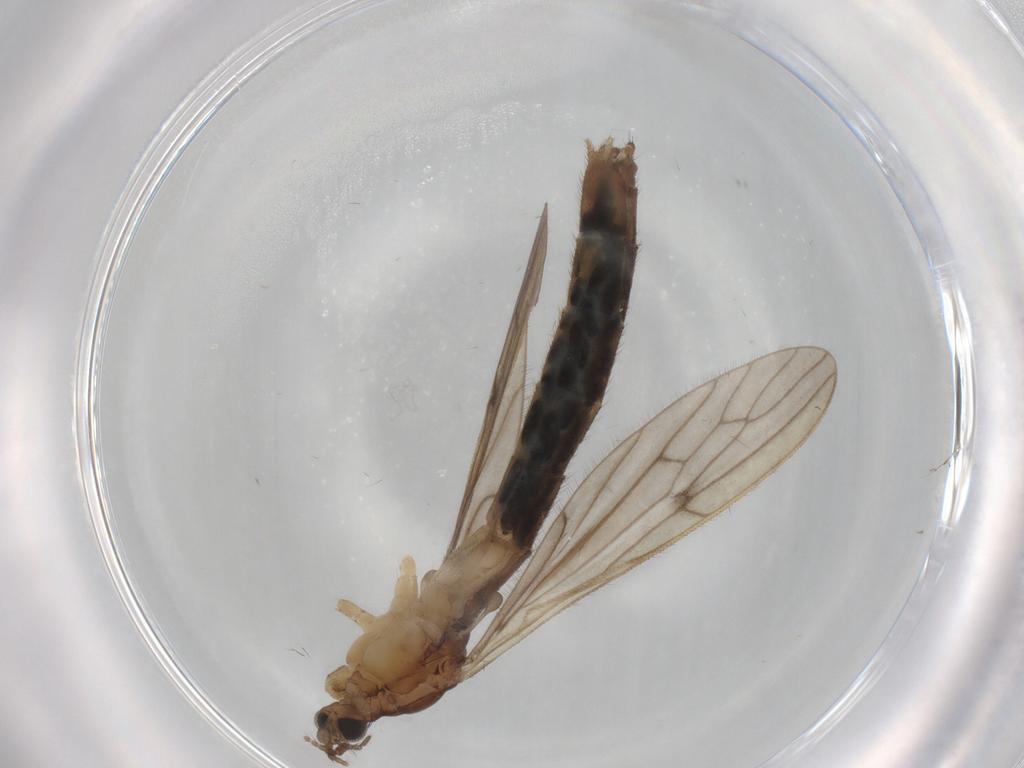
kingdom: Animalia
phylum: Arthropoda
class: Insecta
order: Diptera
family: Limoniidae
